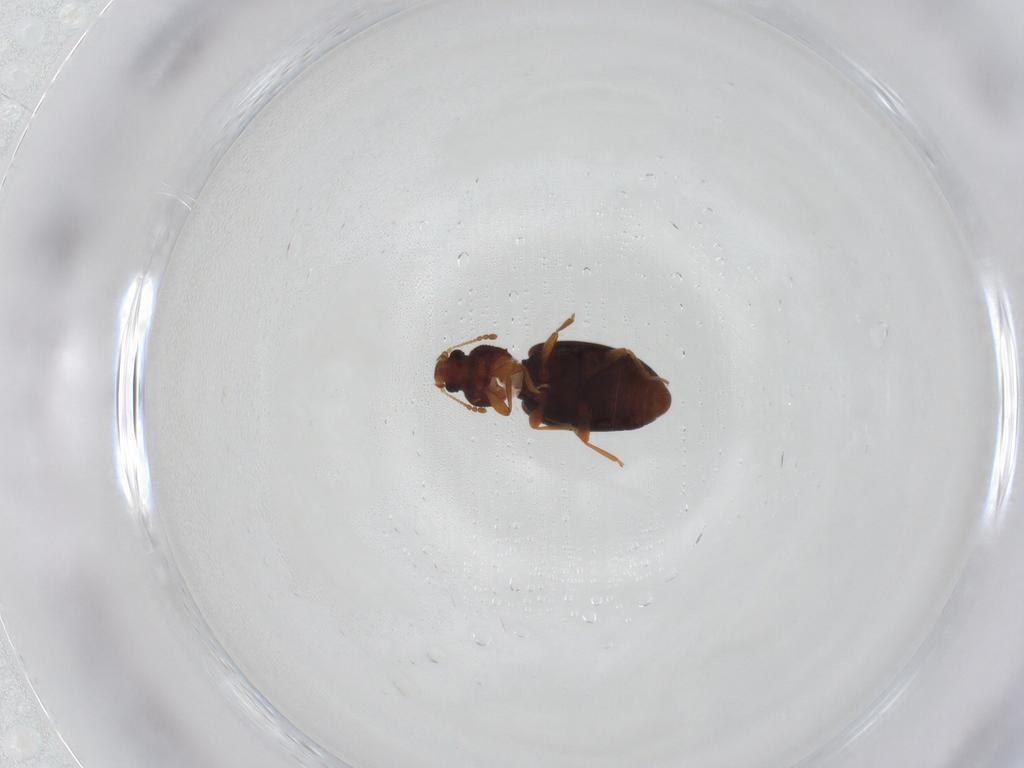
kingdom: Animalia
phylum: Arthropoda
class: Insecta
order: Coleoptera
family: Latridiidae
